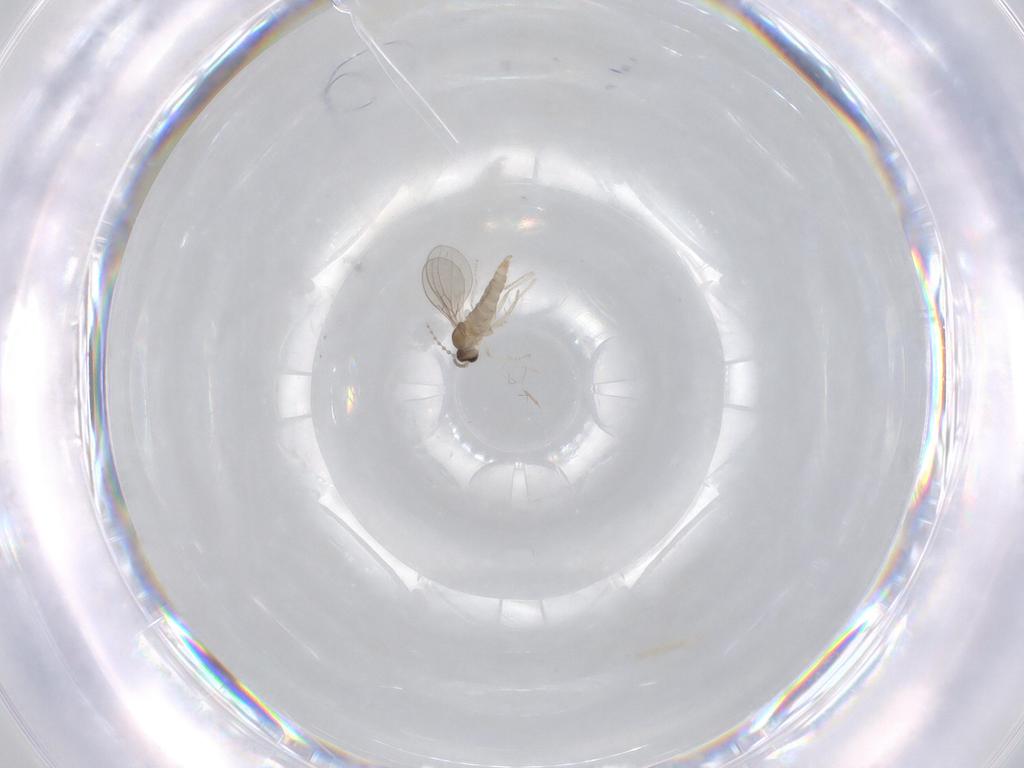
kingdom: Animalia
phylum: Arthropoda
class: Insecta
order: Diptera
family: Cecidomyiidae
